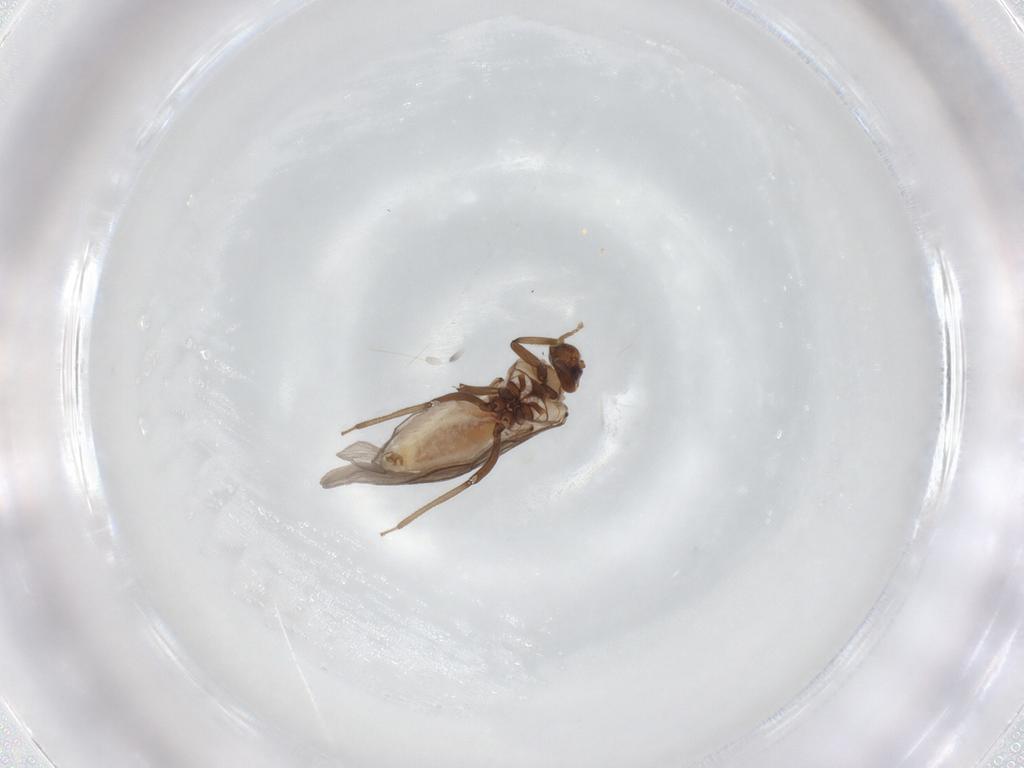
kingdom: Animalia
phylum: Arthropoda
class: Insecta
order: Neuroptera
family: Coniopterygidae
